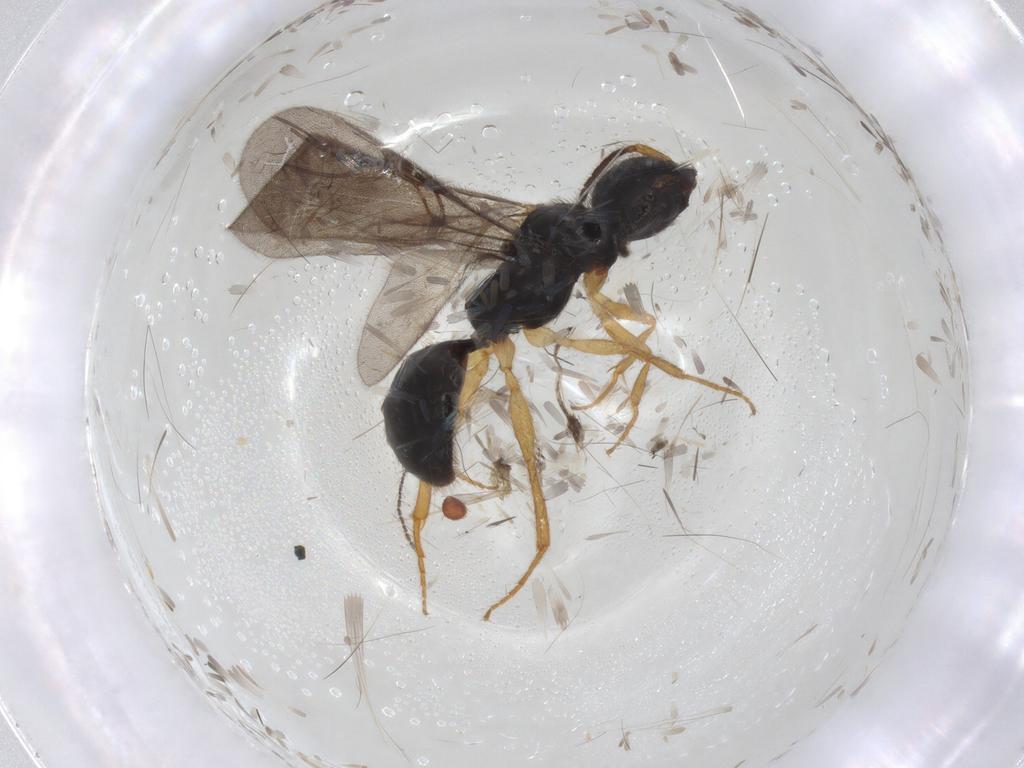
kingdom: Animalia
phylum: Arthropoda
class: Insecta
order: Hymenoptera
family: Bethylidae
